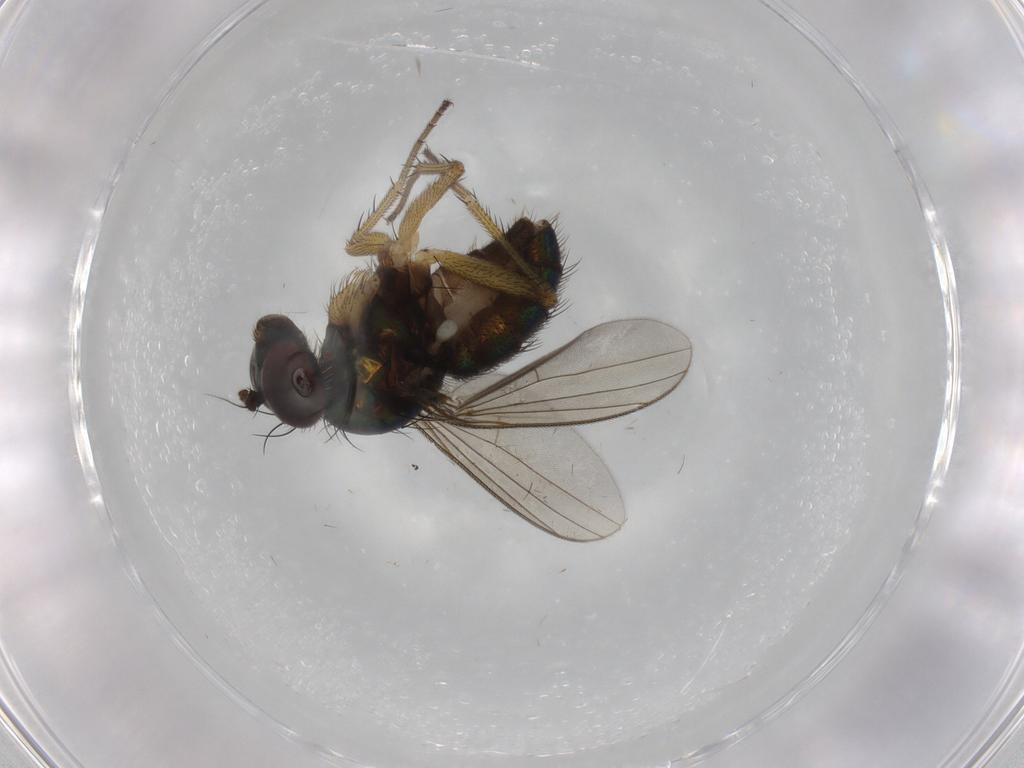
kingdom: Animalia
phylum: Arthropoda
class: Insecta
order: Diptera
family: Dolichopodidae
